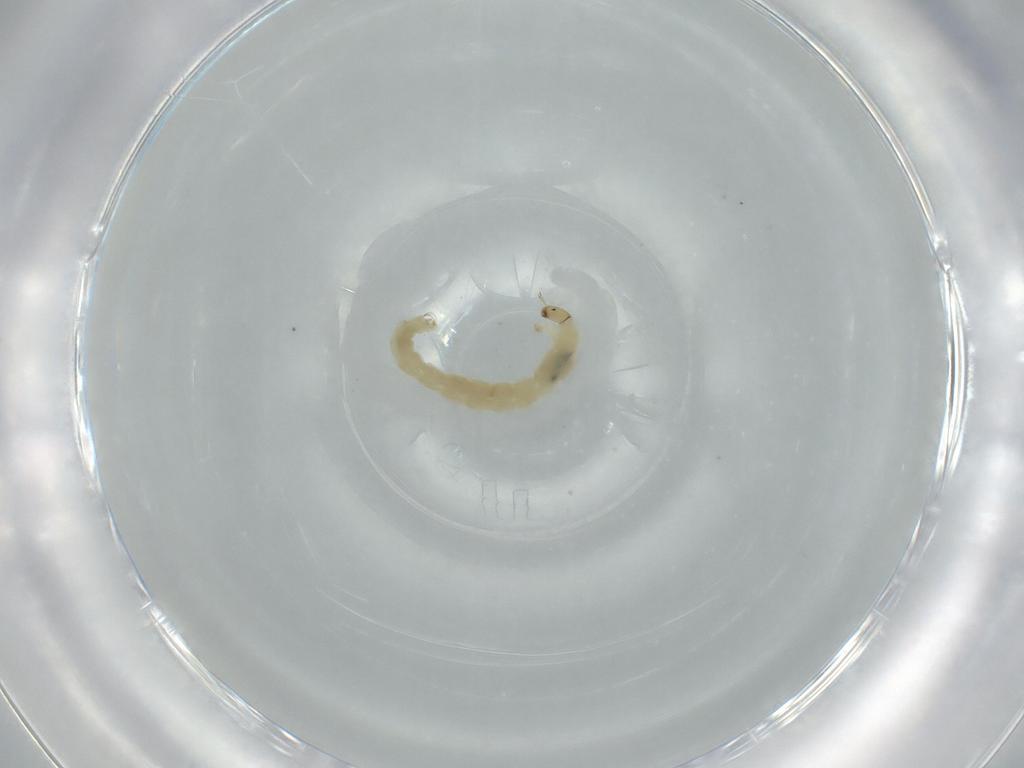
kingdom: Animalia
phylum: Arthropoda
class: Insecta
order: Diptera
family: Chironomidae
